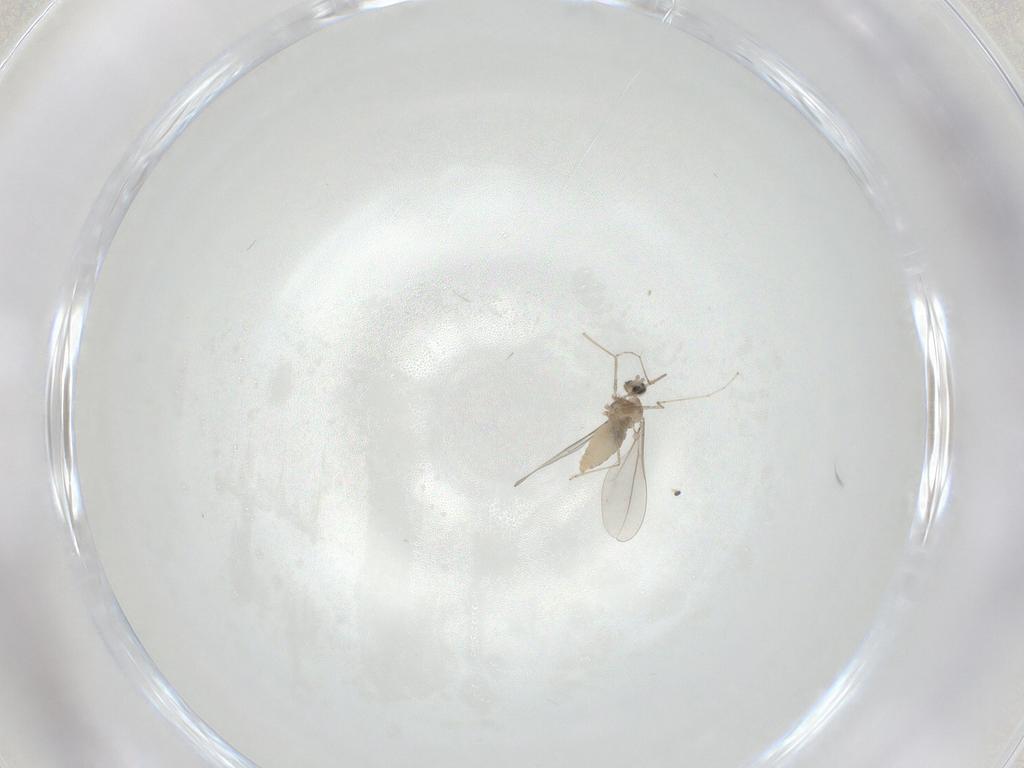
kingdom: Animalia
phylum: Arthropoda
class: Insecta
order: Diptera
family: Cecidomyiidae
